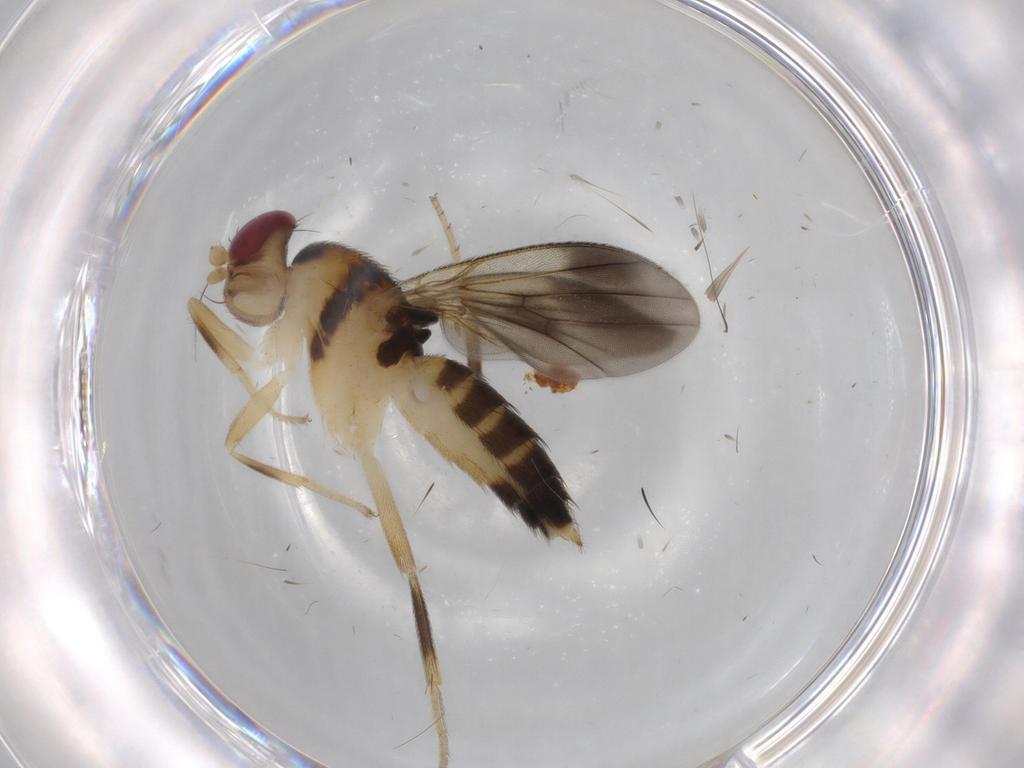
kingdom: Animalia
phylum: Arthropoda
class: Insecta
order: Diptera
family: Clusiidae
